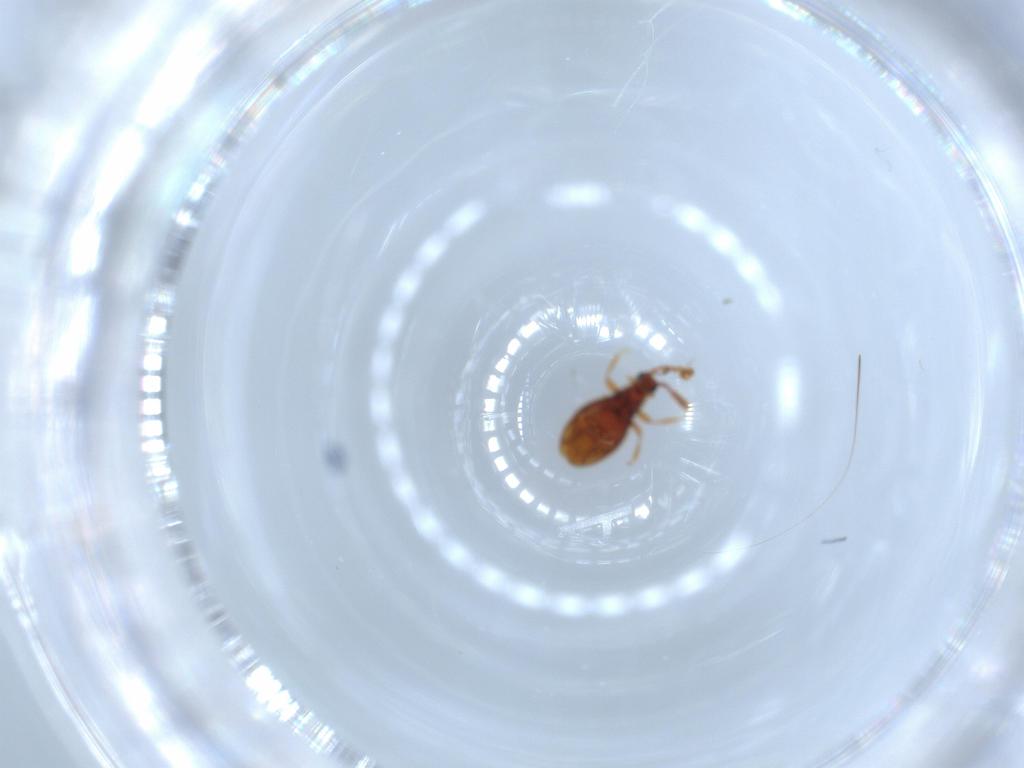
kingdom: Animalia
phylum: Arthropoda
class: Insecta
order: Coleoptera
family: Staphylinidae
